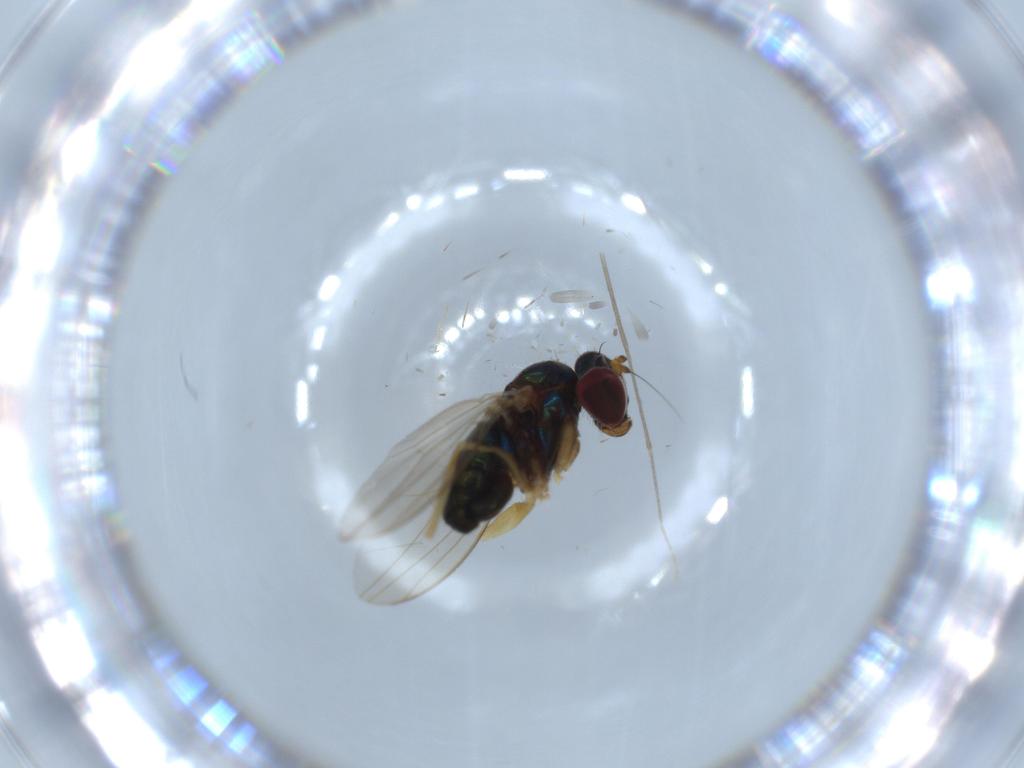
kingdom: Animalia
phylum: Arthropoda
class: Insecta
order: Diptera
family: Dolichopodidae
